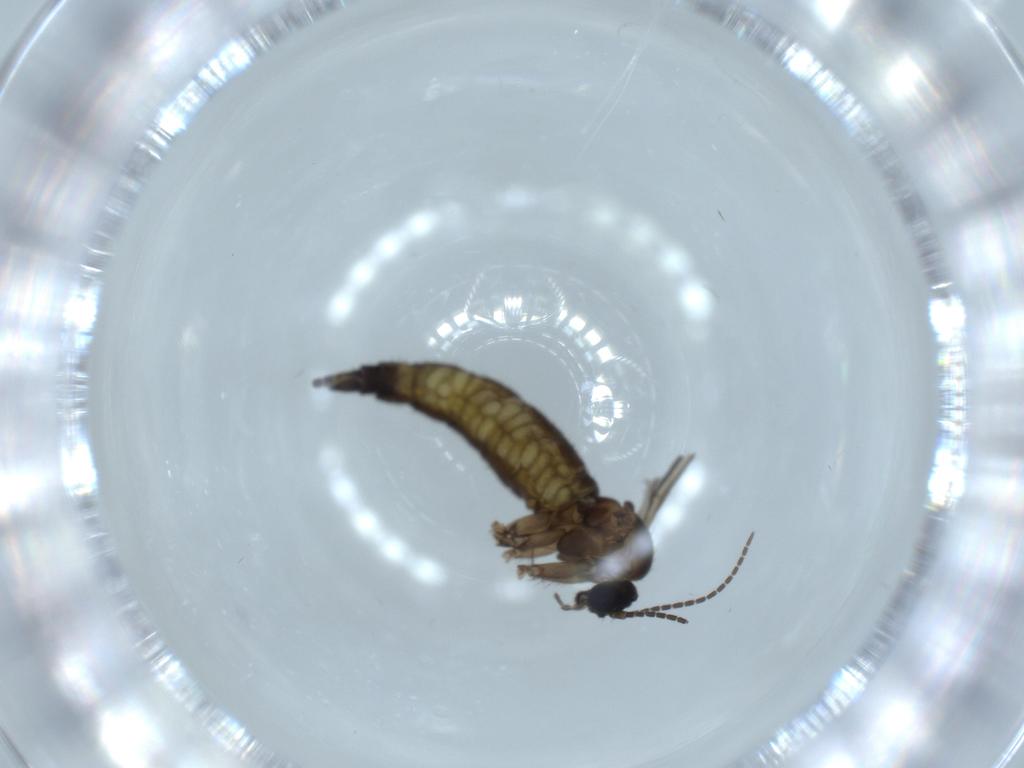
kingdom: Animalia
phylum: Arthropoda
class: Insecta
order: Diptera
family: Sciaridae
